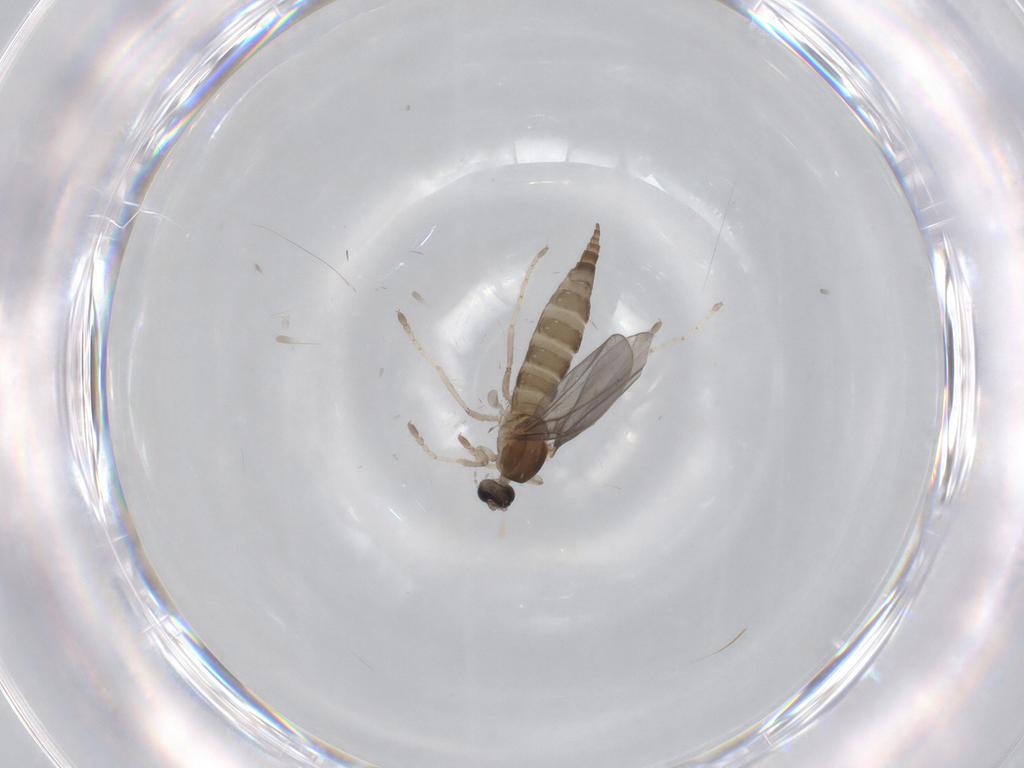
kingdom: Animalia
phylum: Arthropoda
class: Insecta
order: Diptera
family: Cecidomyiidae
